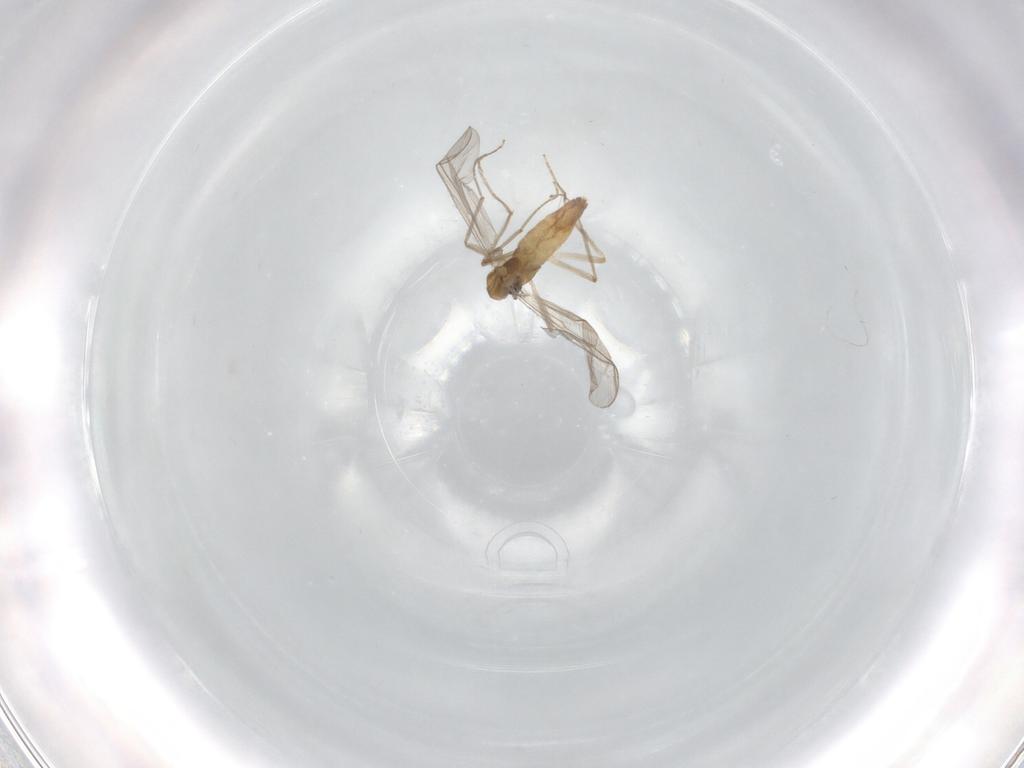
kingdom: Animalia
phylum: Arthropoda
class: Insecta
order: Diptera
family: Chironomidae
